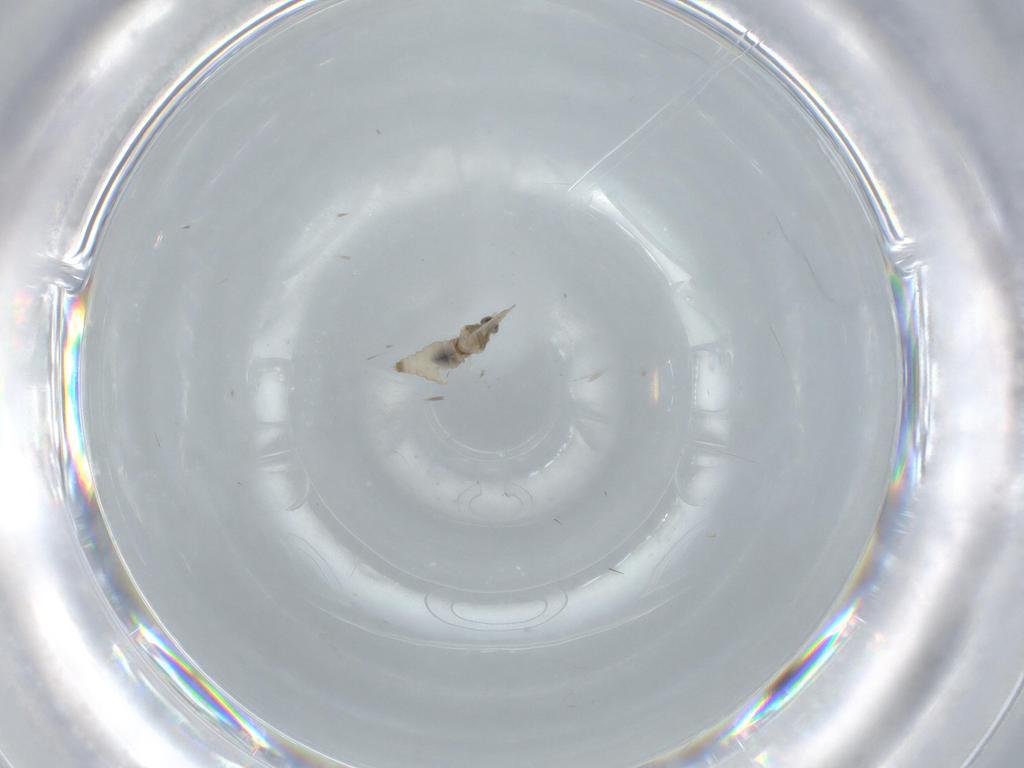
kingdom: Animalia
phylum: Arthropoda
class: Insecta
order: Diptera
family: Cecidomyiidae
